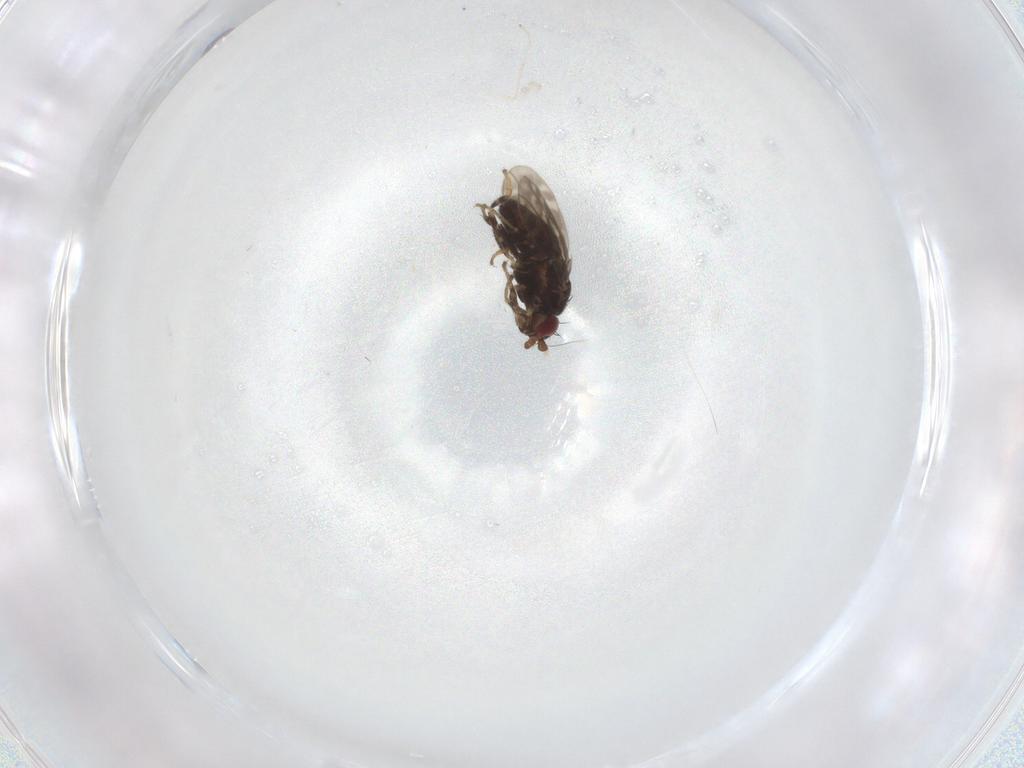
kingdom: Animalia
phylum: Arthropoda
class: Insecta
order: Diptera
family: Sphaeroceridae
